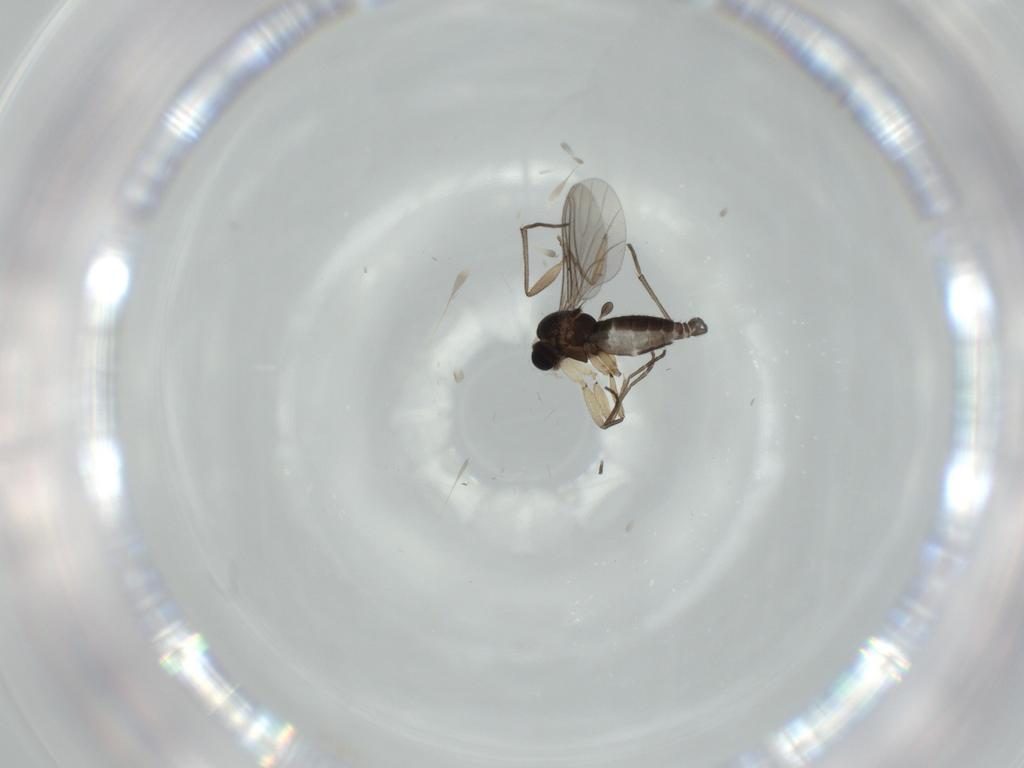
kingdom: Animalia
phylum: Arthropoda
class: Insecta
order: Diptera
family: Sciaridae
